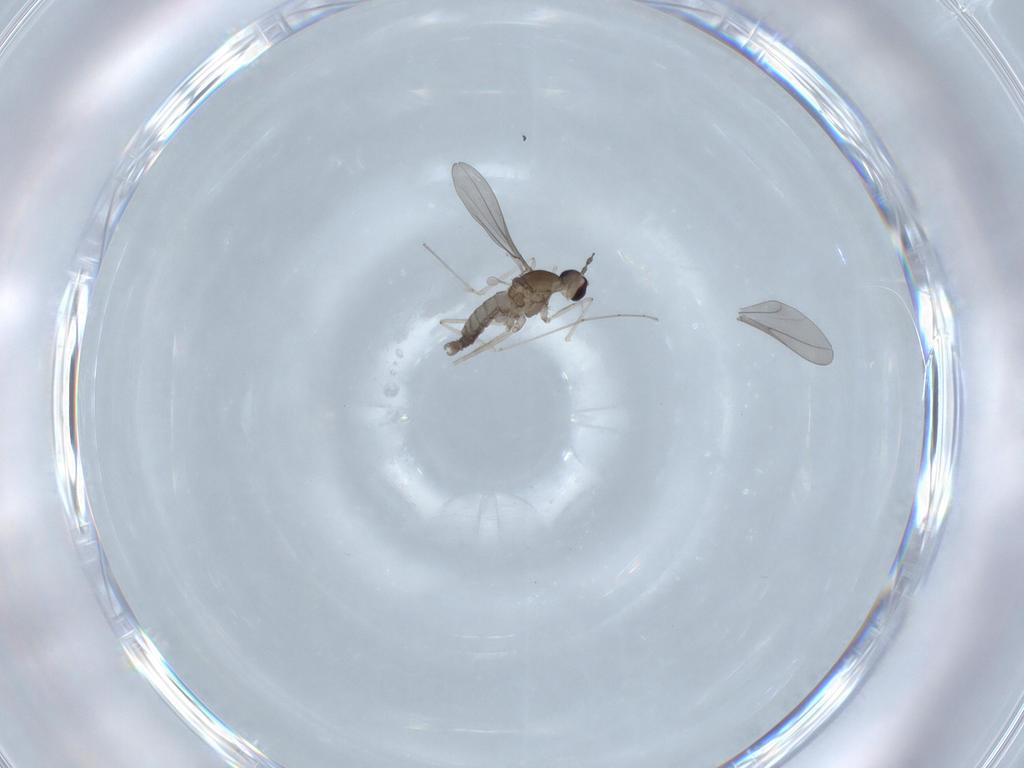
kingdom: Animalia
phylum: Arthropoda
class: Insecta
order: Diptera
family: Cecidomyiidae
